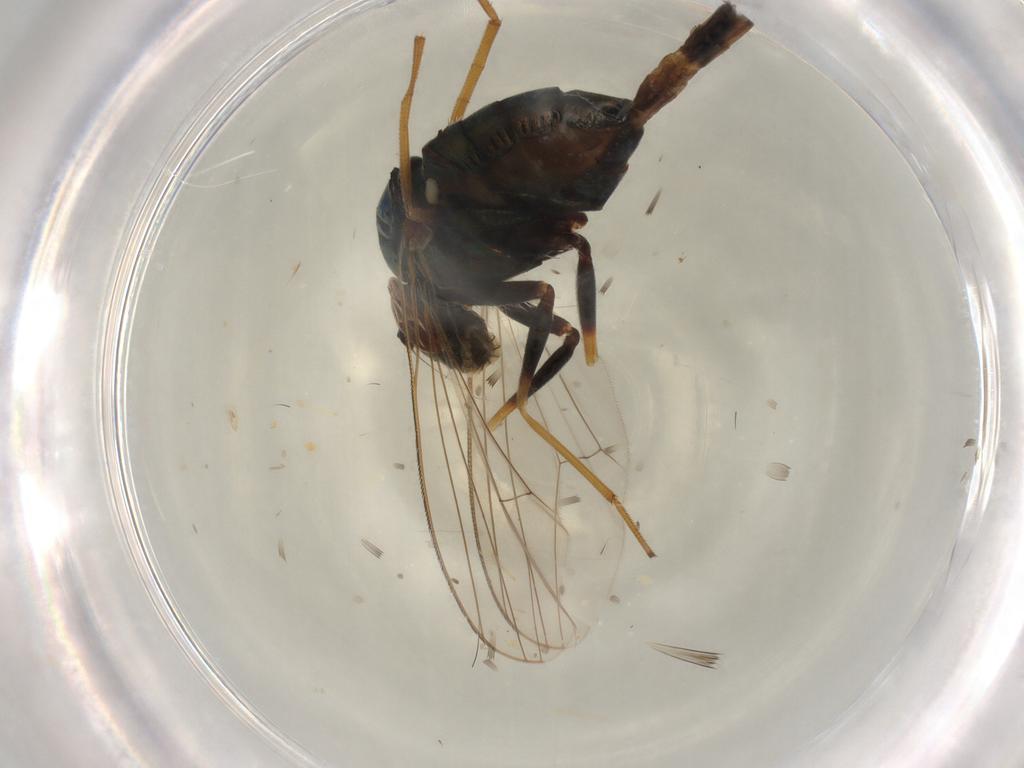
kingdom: Animalia
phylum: Arthropoda
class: Insecta
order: Diptera
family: Dolichopodidae
